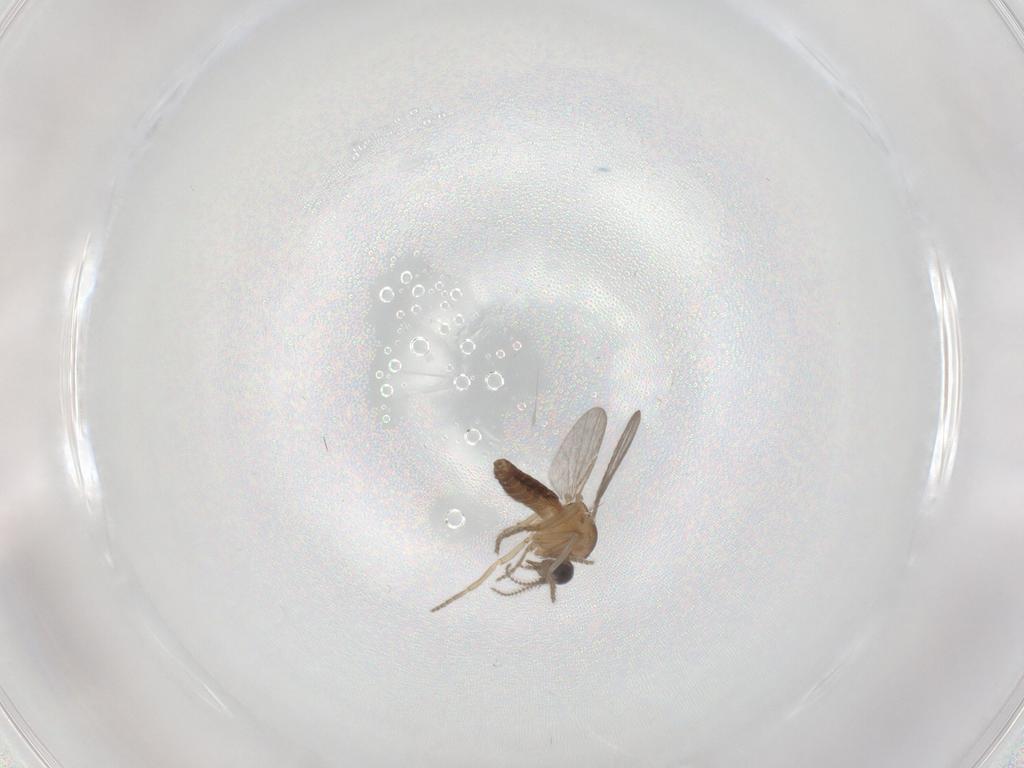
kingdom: Animalia
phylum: Arthropoda
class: Insecta
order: Diptera
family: Ceratopogonidae
